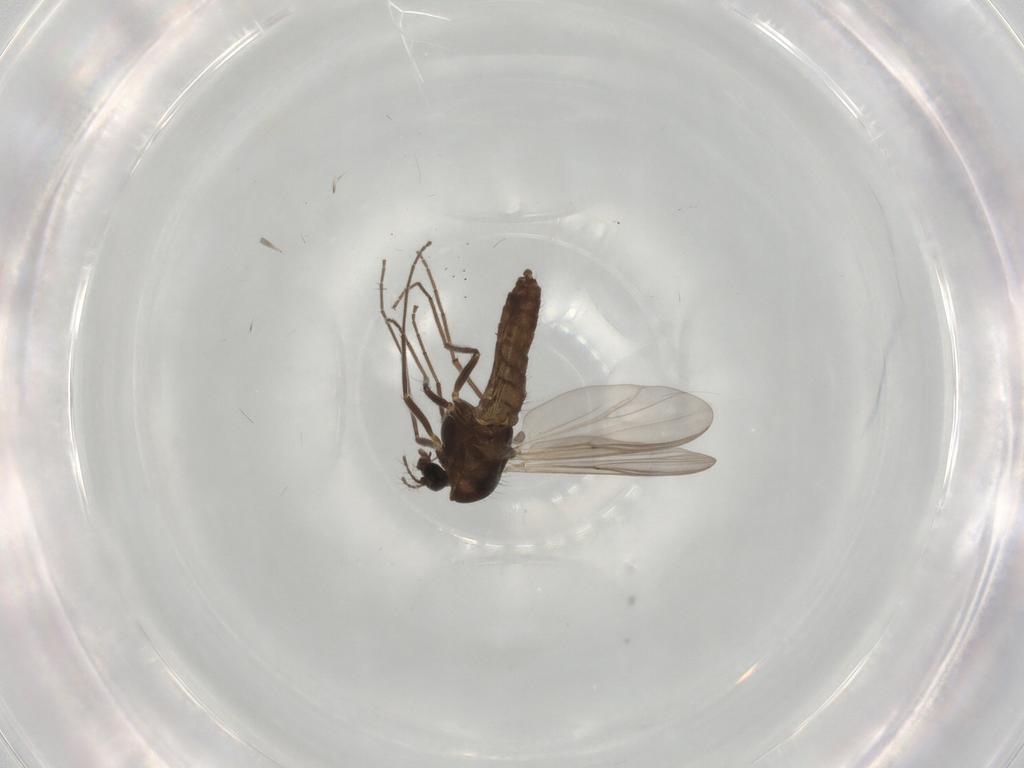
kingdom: Animalia
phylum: Arthropoda
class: Insecta
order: Diptera
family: Chironomidae
